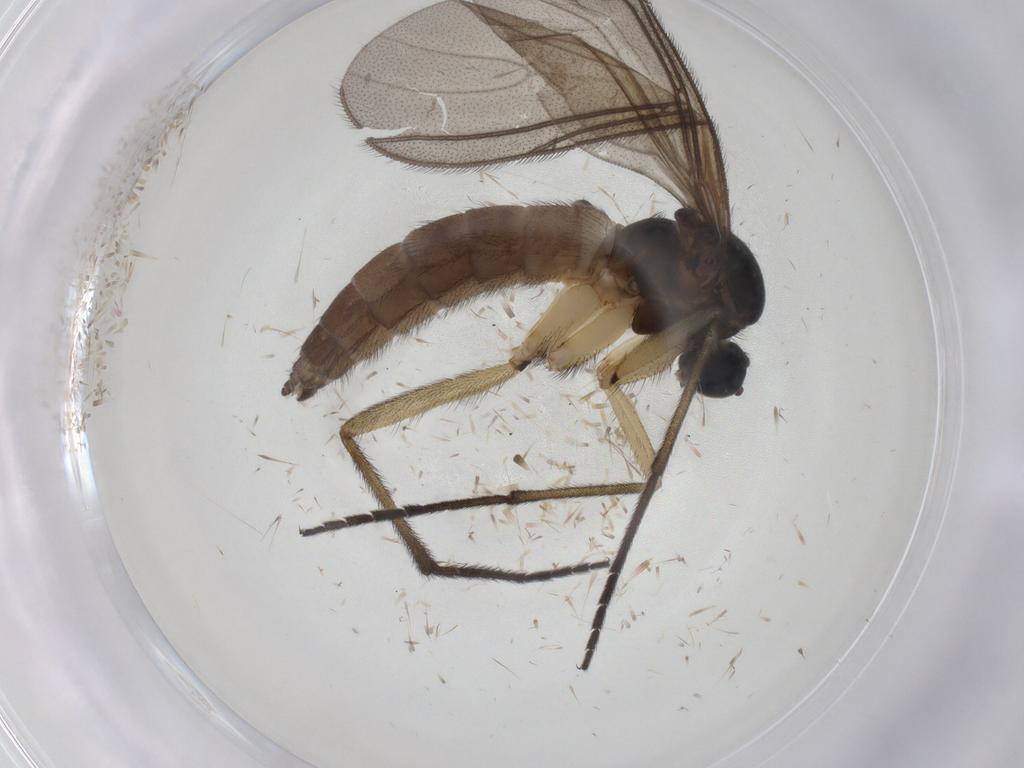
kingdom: Animalia
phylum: Arthropoda
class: Insecta
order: Diptera
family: Sciaridae
